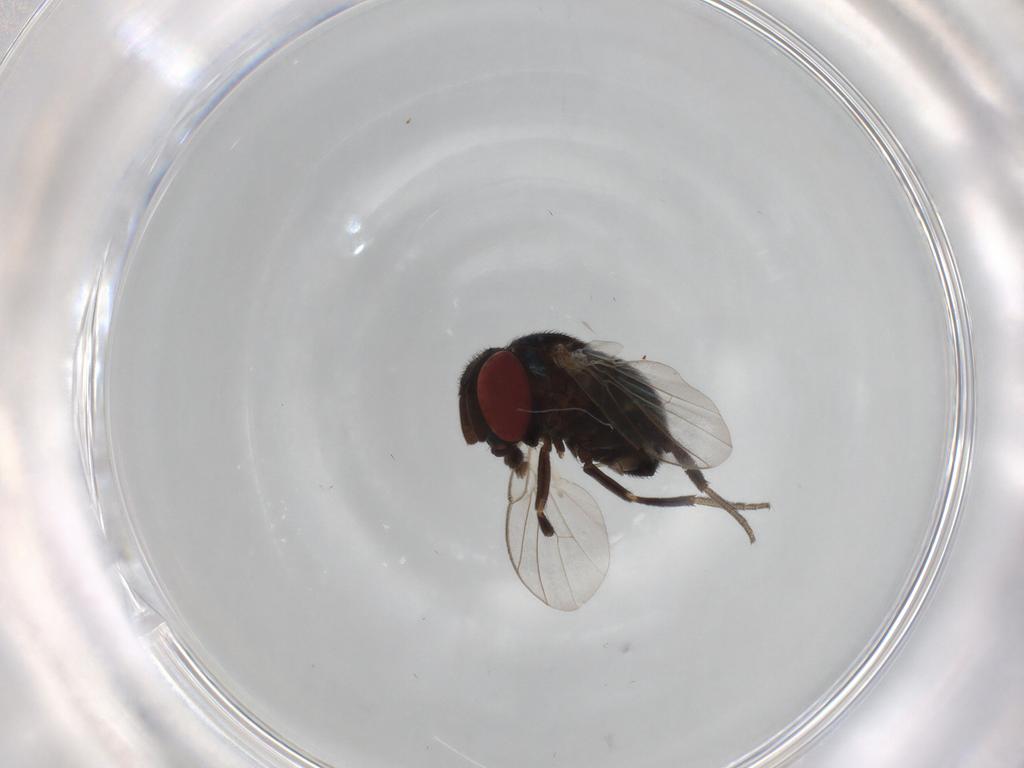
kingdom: Animalia
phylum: Arthropoda
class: Insecta
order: Diptera
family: Cryptochetidae
